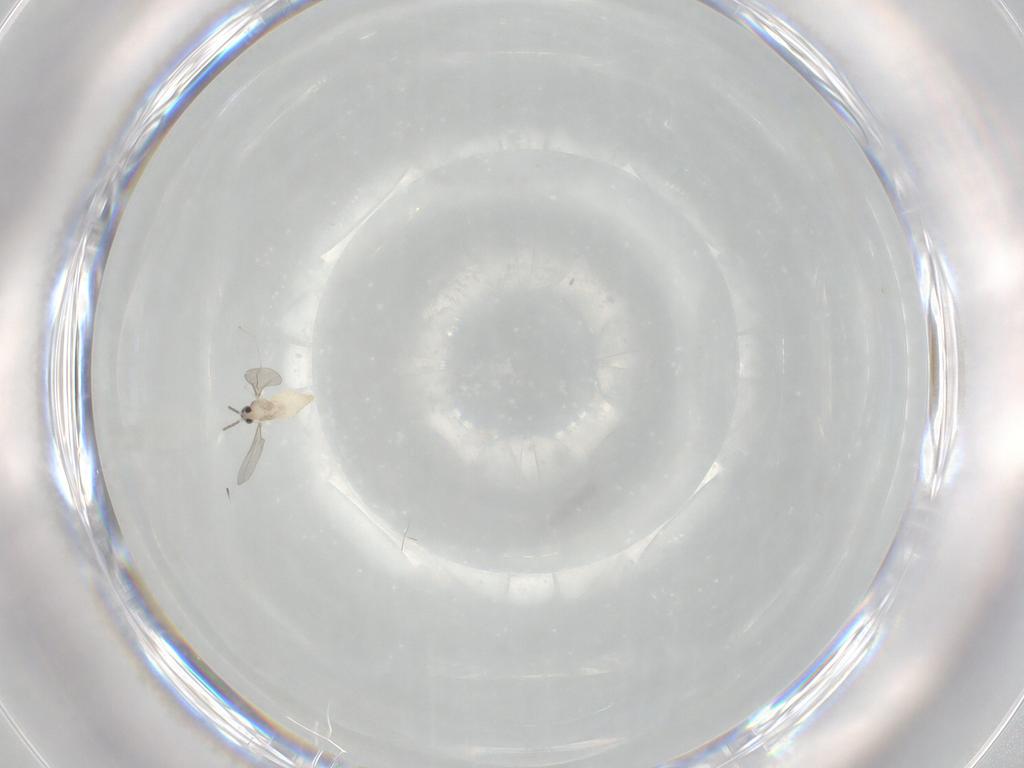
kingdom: Animalia
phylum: Arthropoda
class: Insecta
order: Diptera
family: Cecidomyiidae
